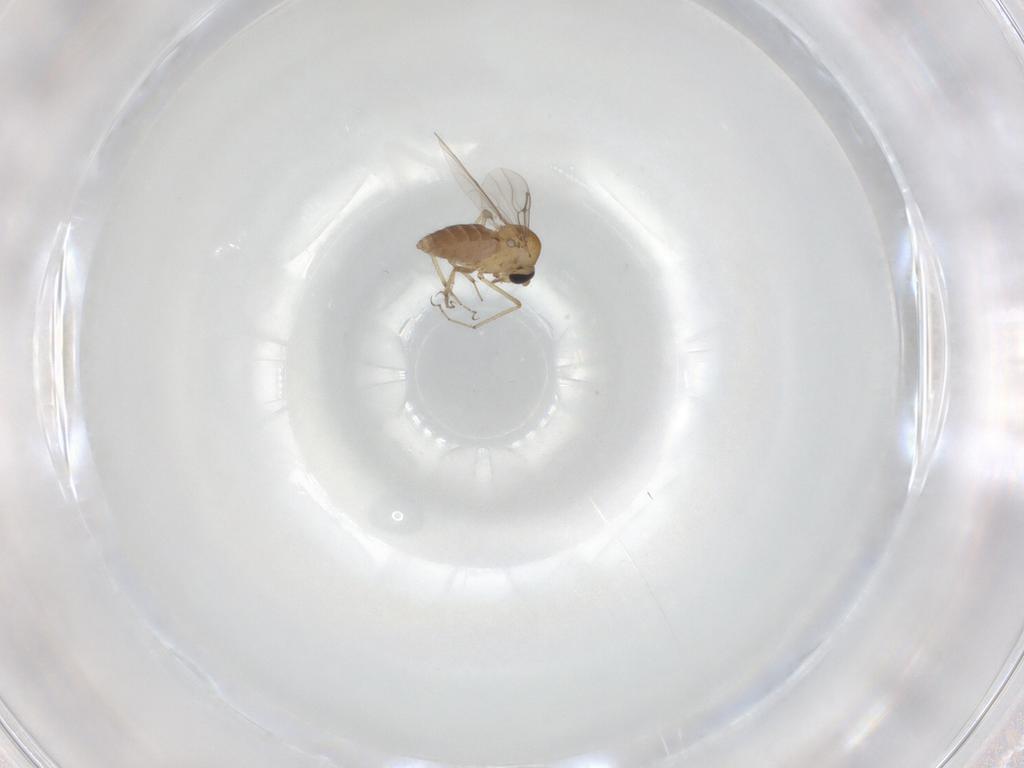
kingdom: Animalia
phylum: Arthropoda
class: Insecta
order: Diptera
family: Ceratopogonidae
